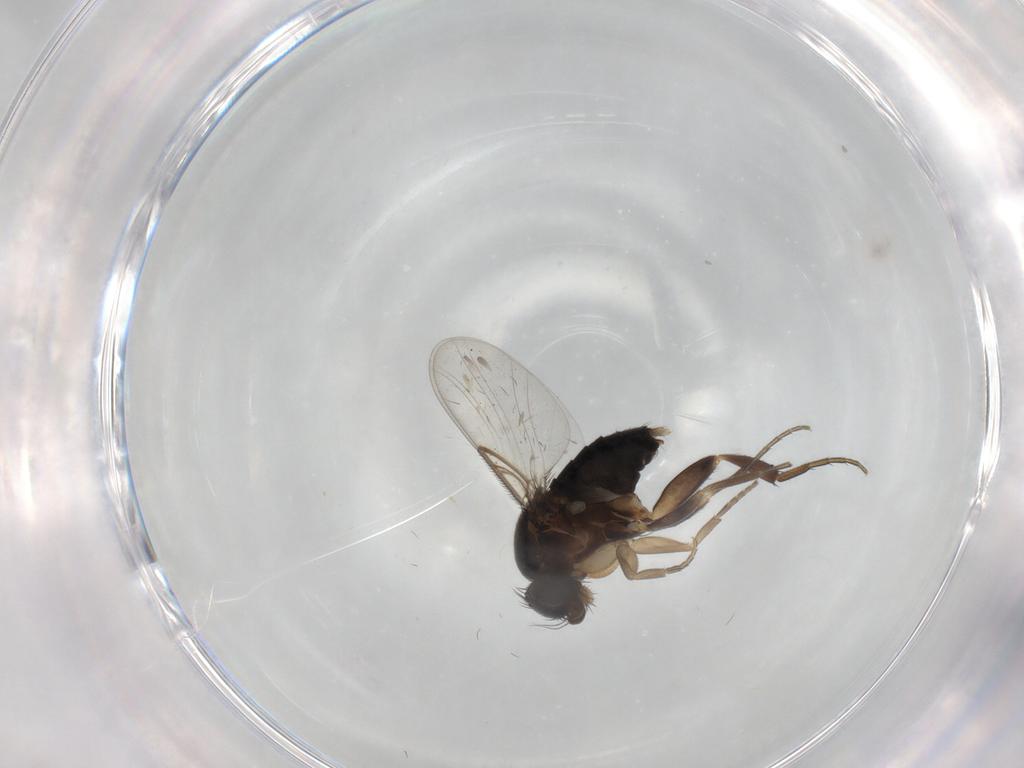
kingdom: Animalia
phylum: Arthropoda
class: Insecta
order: Diptera
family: Phoridae
